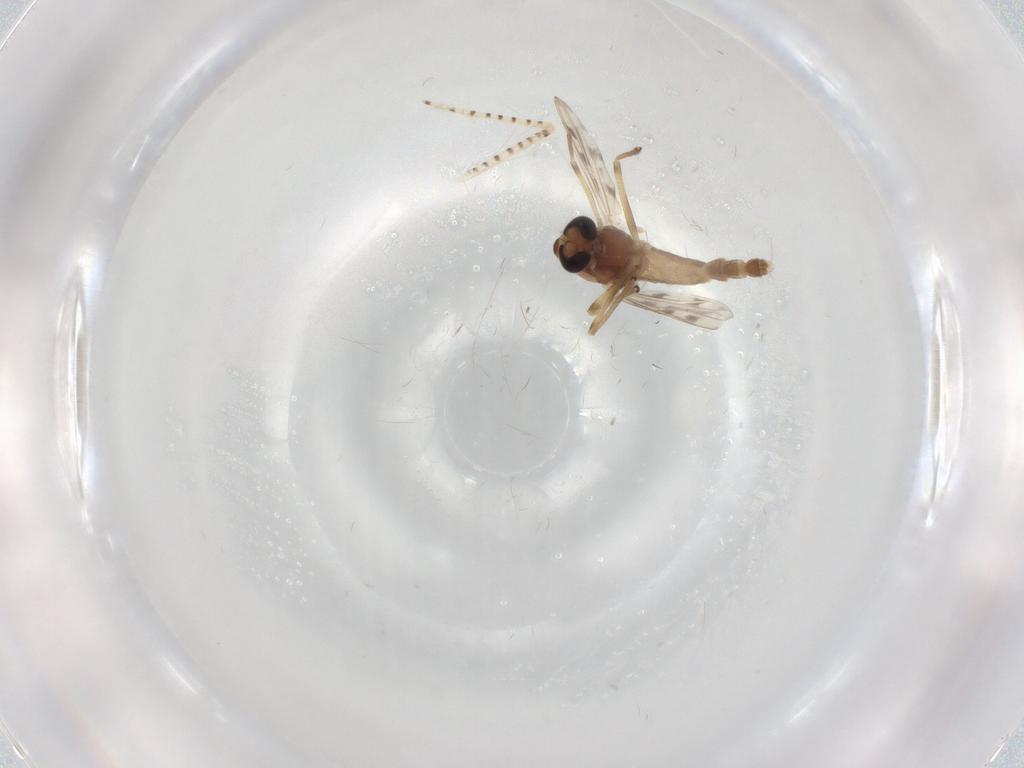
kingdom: Animalia
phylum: Arthropoda
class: Insecta
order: Diptera
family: Chironomidae
